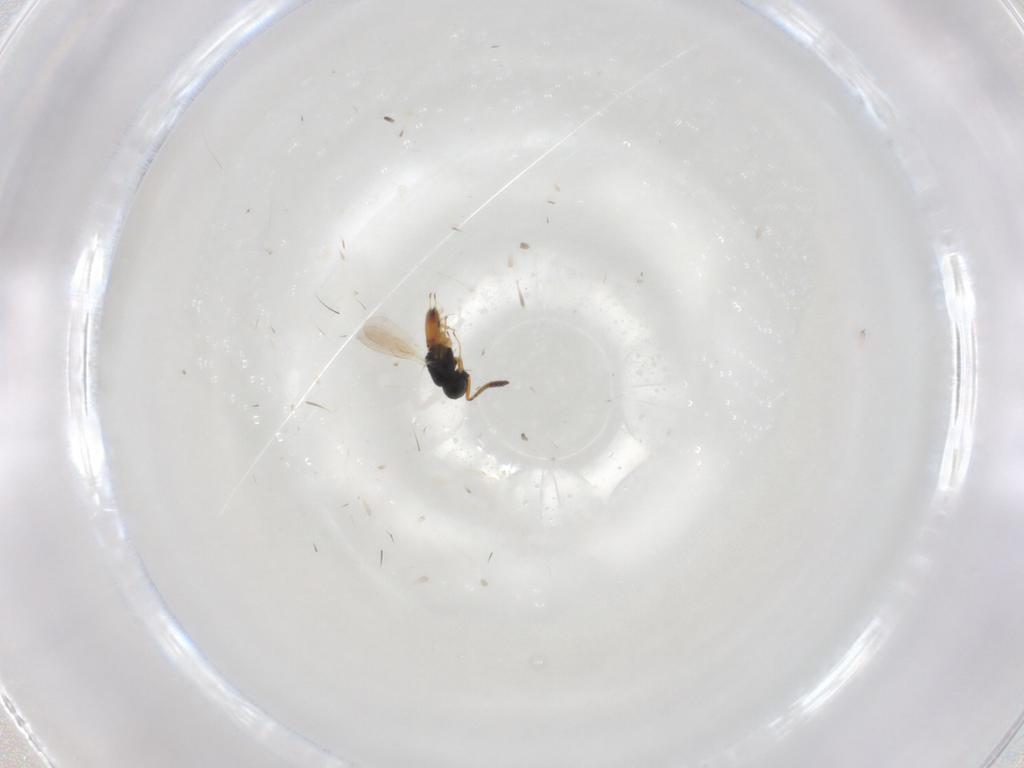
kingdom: Animalia
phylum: Arthropoda
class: Insecta
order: Hymenoptera
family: Scelionidae
